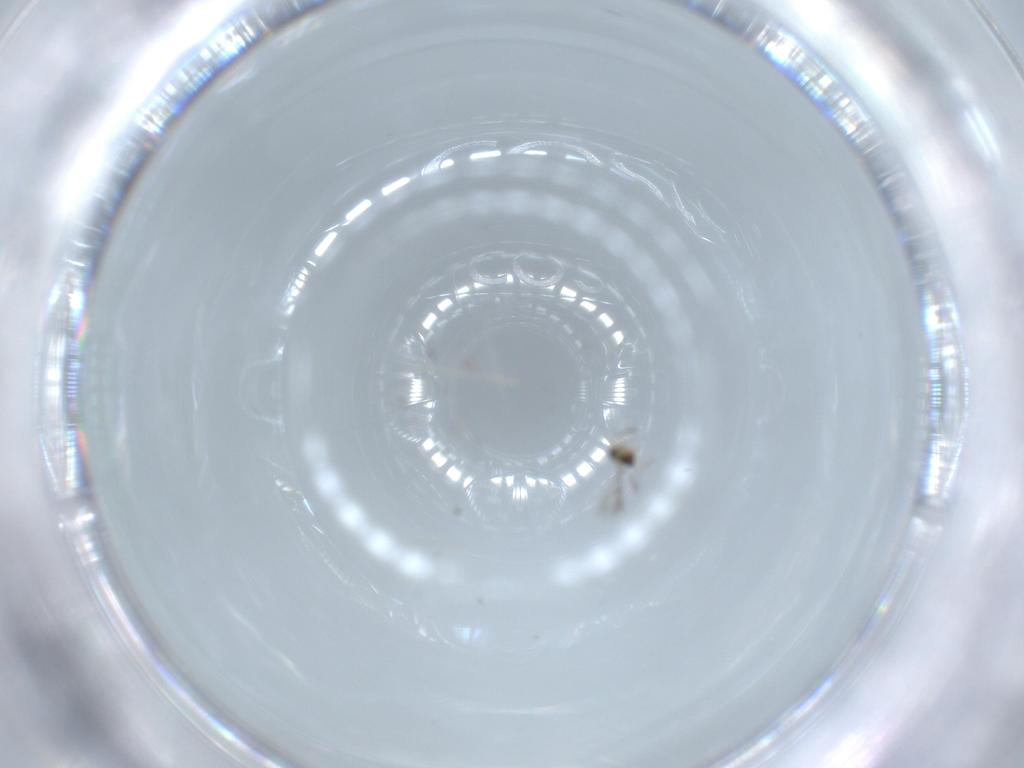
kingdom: Animalia
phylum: Arthropoda
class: Insecta
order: Hymenoptera
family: Mymaridae
